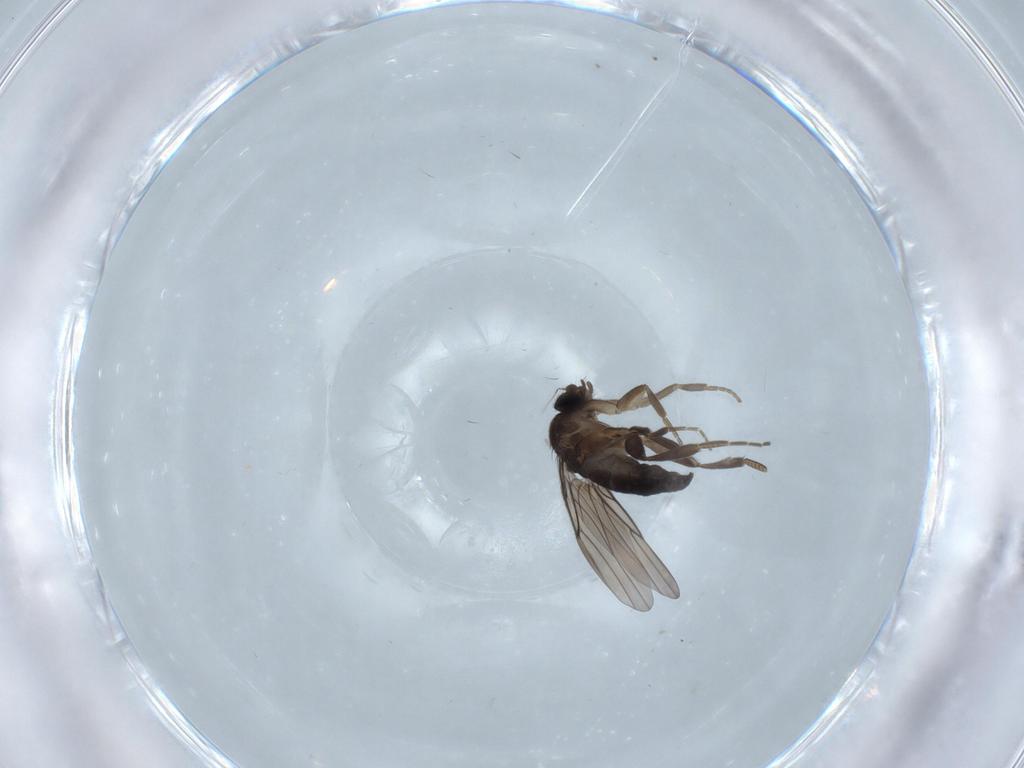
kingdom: Animalia
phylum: Arthropoda
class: Insecta
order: Diptera
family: Phoridae
